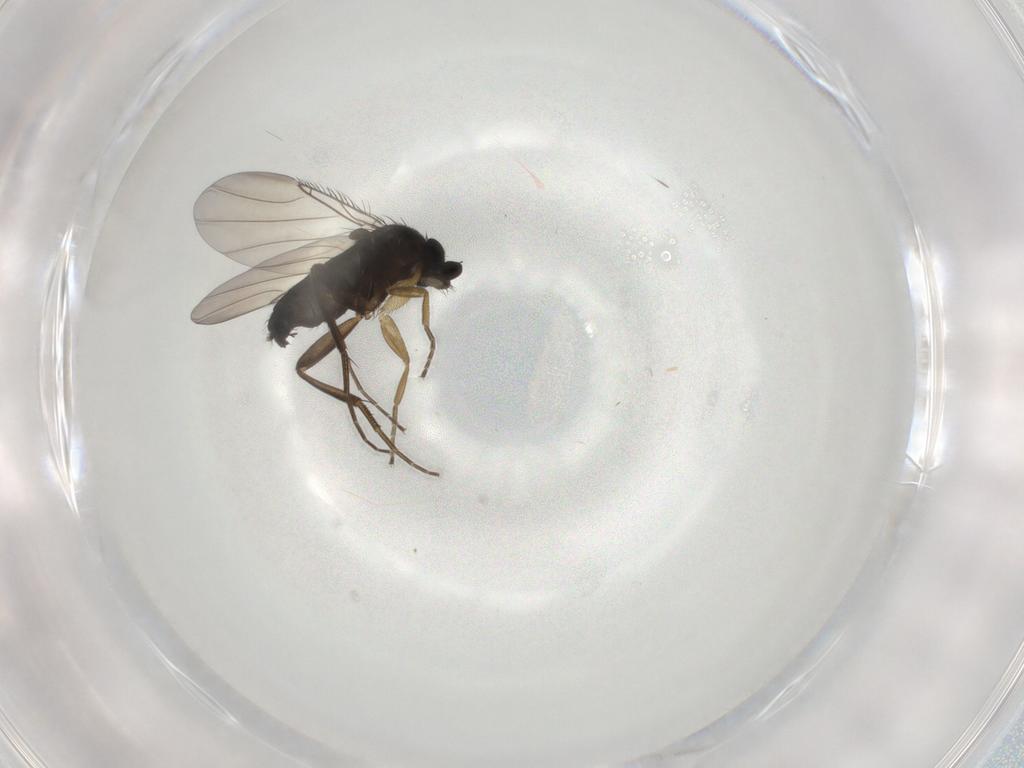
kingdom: Animalia
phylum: Arthropoda
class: Insecta
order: Diptera
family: Phoridae
